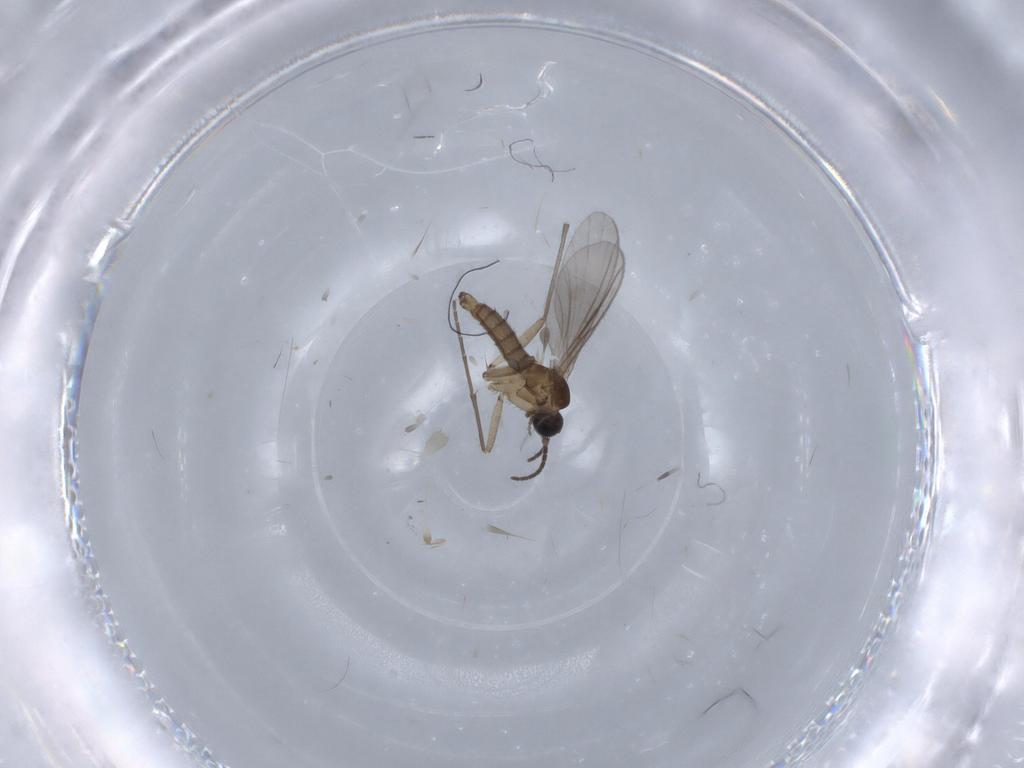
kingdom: Animalia
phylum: Arthropoda
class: Insecta
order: Diptera
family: Sciaridae
